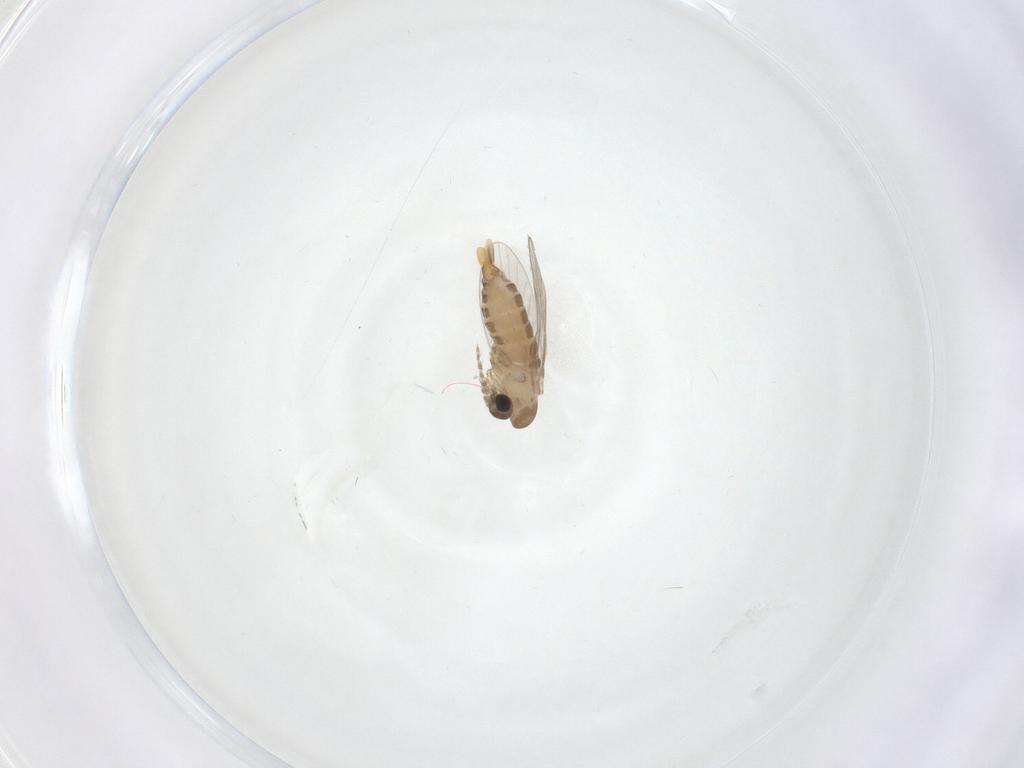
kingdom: Animalia
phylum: Arthropoda
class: Insecta
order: Diptera
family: Psychodidae
